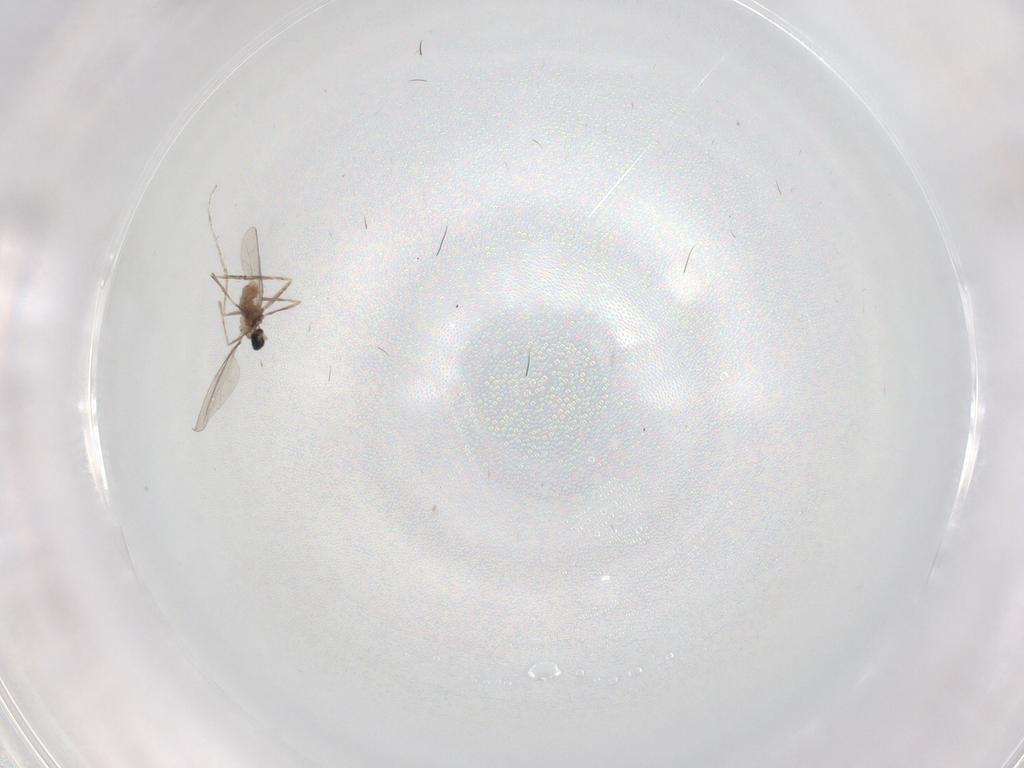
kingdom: Animalia
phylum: Arthropoda
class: Insecta
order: Diptera
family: Cecidomyiidae
